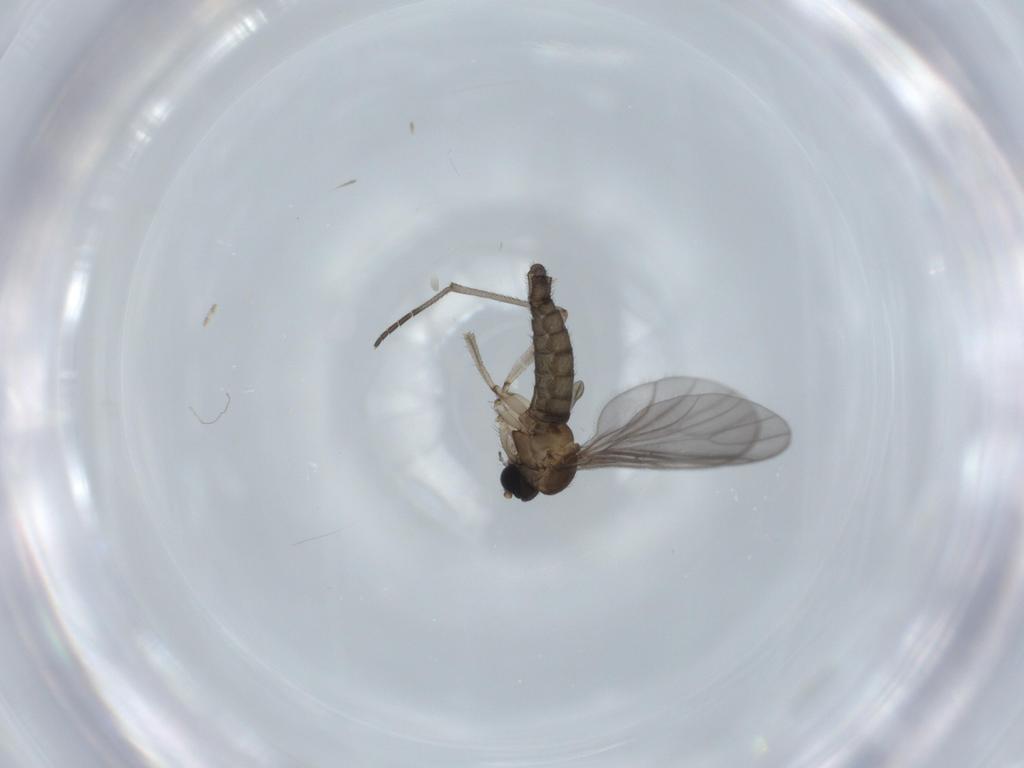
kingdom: Animalia
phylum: Arthropoda
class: Insecta
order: Diptera
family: Sciaridae
